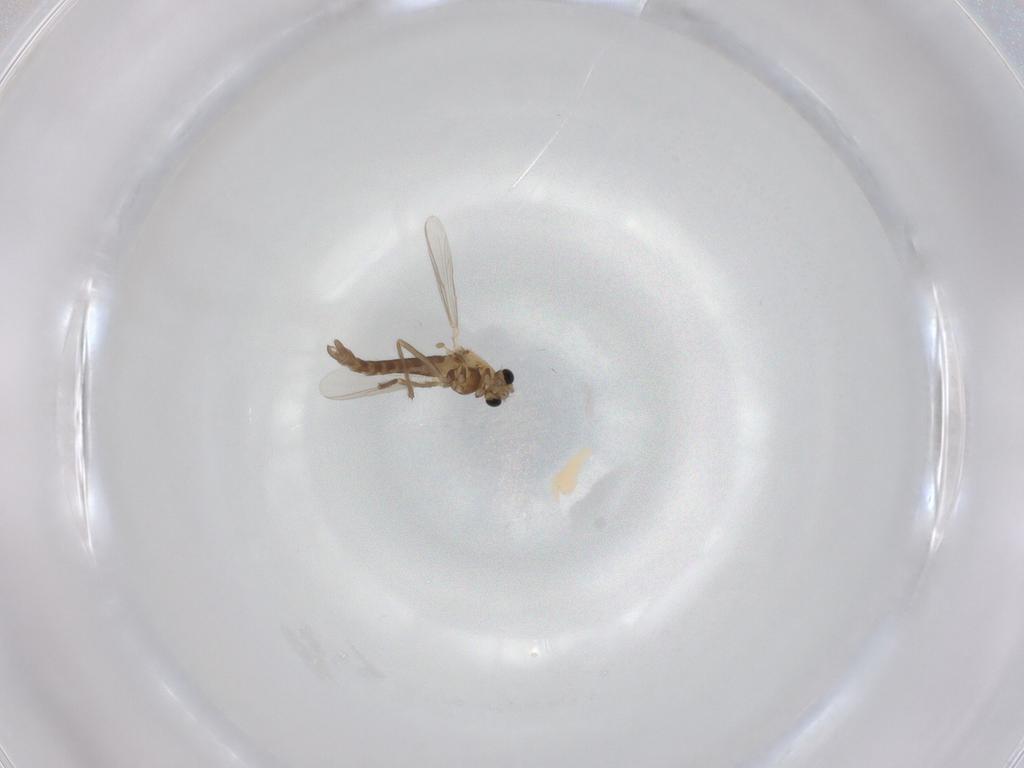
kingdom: Animalia
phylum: Arthropoda
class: Insecta
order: Diptera
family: Chironomidae
